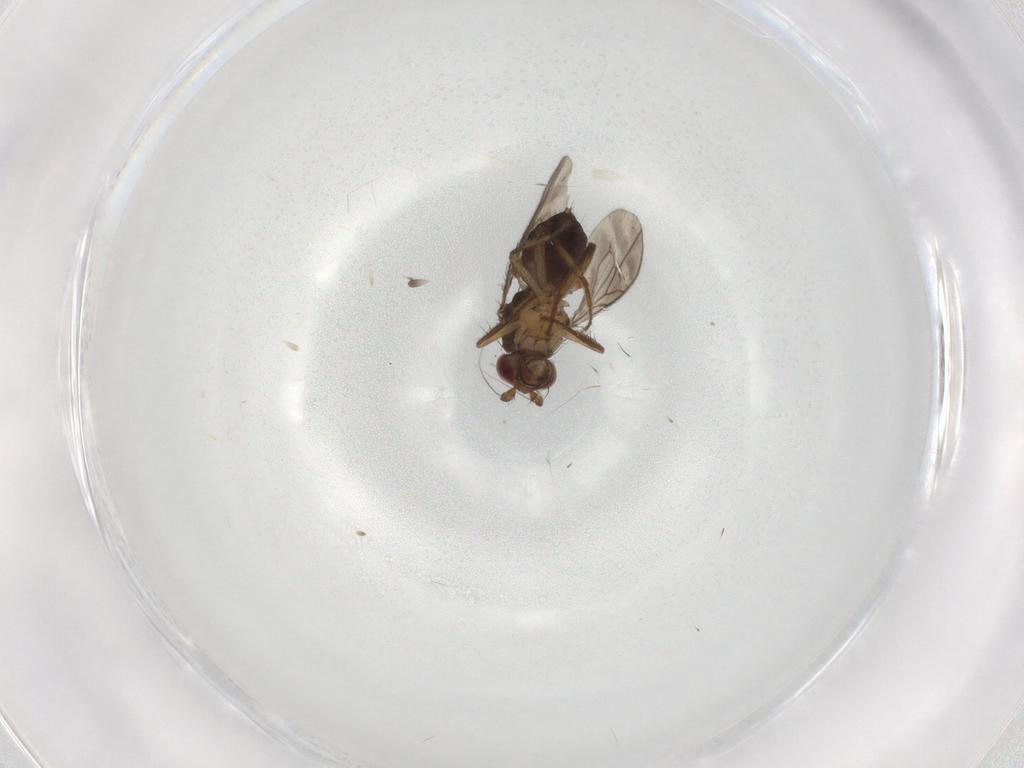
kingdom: Animalia
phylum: Arthropoda
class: Insecta
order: Diptera
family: Sphaeroceridae
